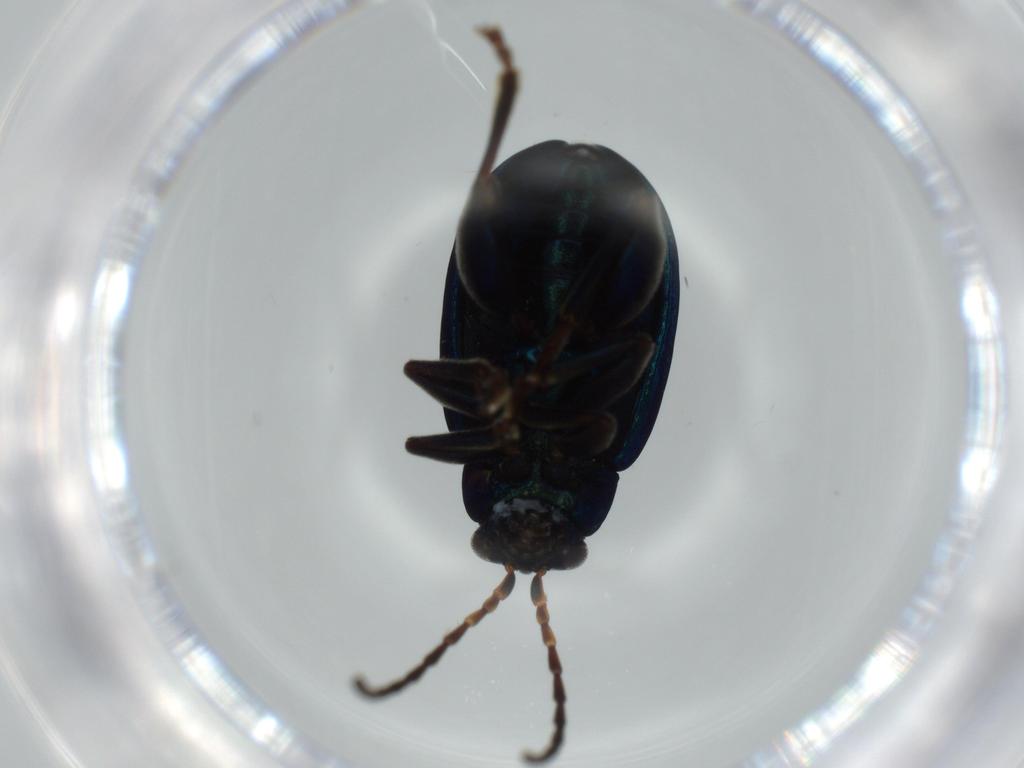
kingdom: Animalia
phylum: Arthropoda
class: Insecta
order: Coleoptera
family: Chrysomelidae
